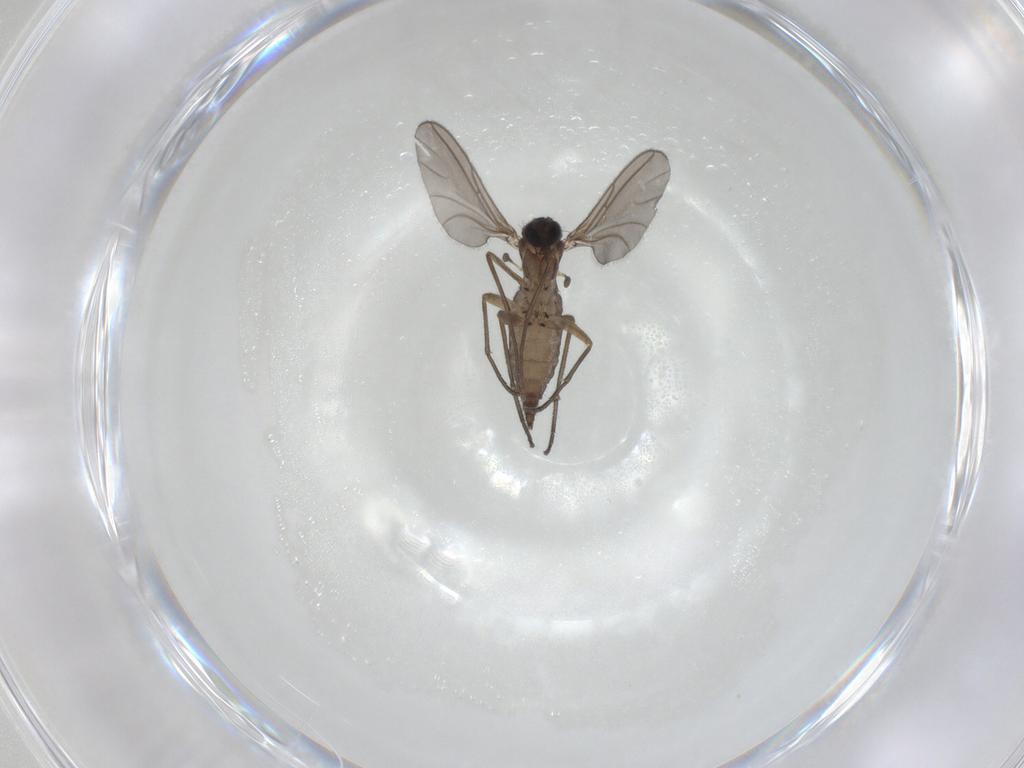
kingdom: Animalia
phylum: Arthropoda
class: Insecta
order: Diptera
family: Sciaridae
